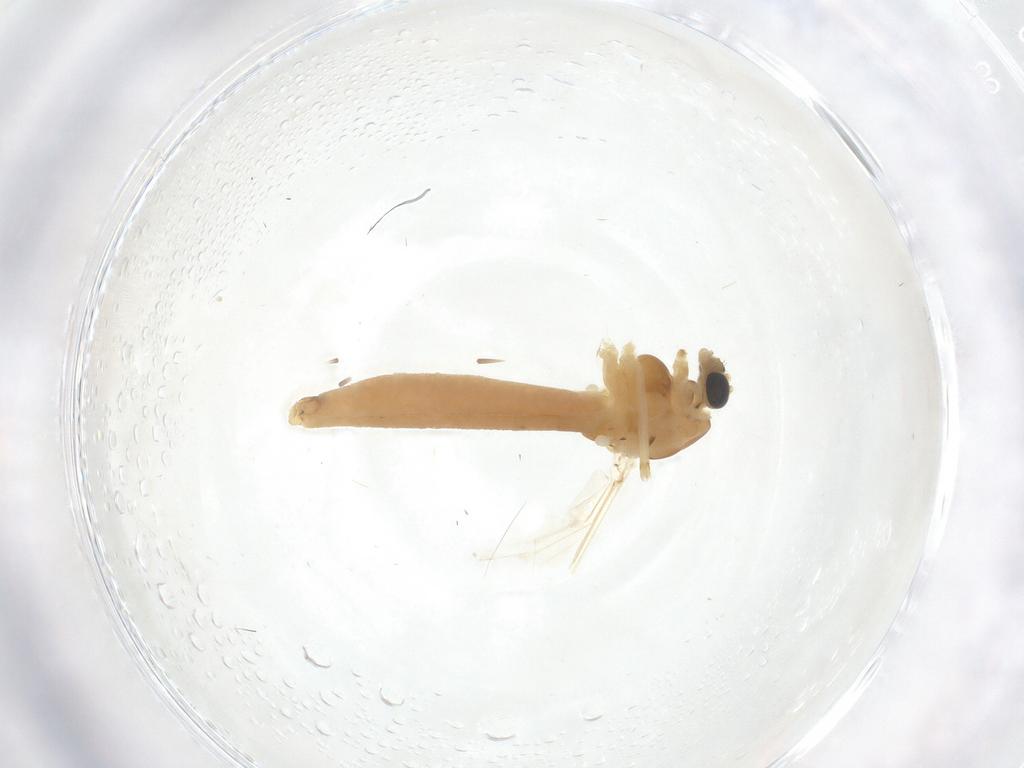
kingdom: Animalia
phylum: Arthropoda
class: Insecta
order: Diptera
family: Chironomidae
